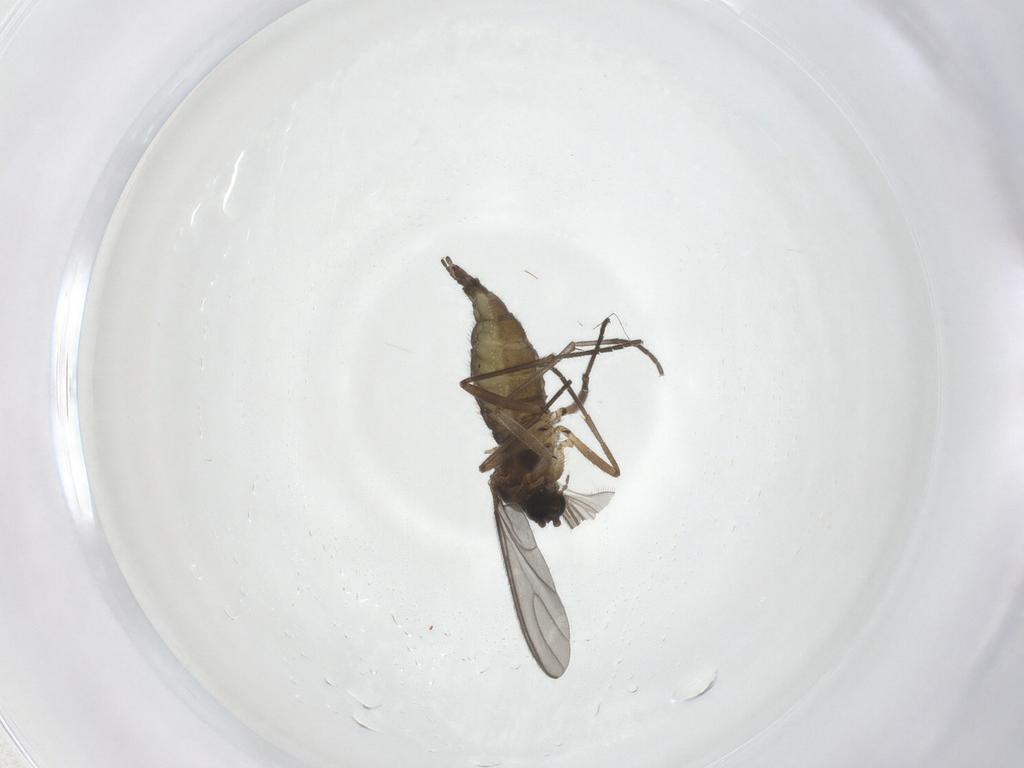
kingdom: Animalia
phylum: Arthropoda
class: Insecta
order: Diptera
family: Sciaridae
